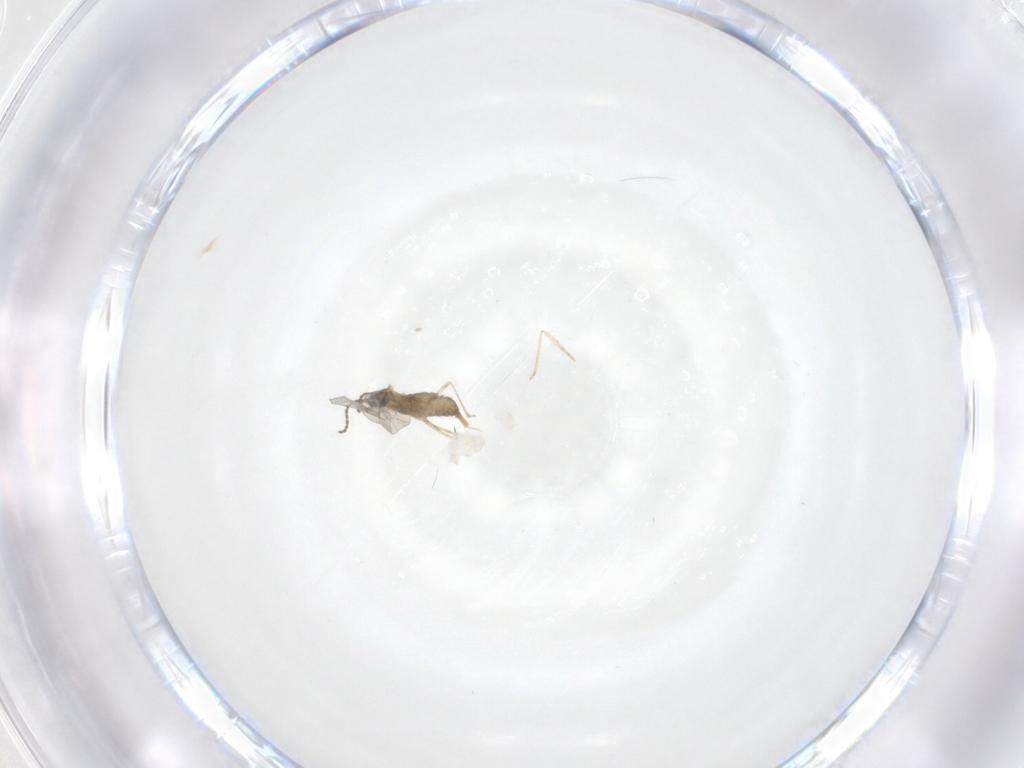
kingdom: Animalia
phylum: Arthropoda
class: Insecta
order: Diptera
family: Cecidomyiidae
